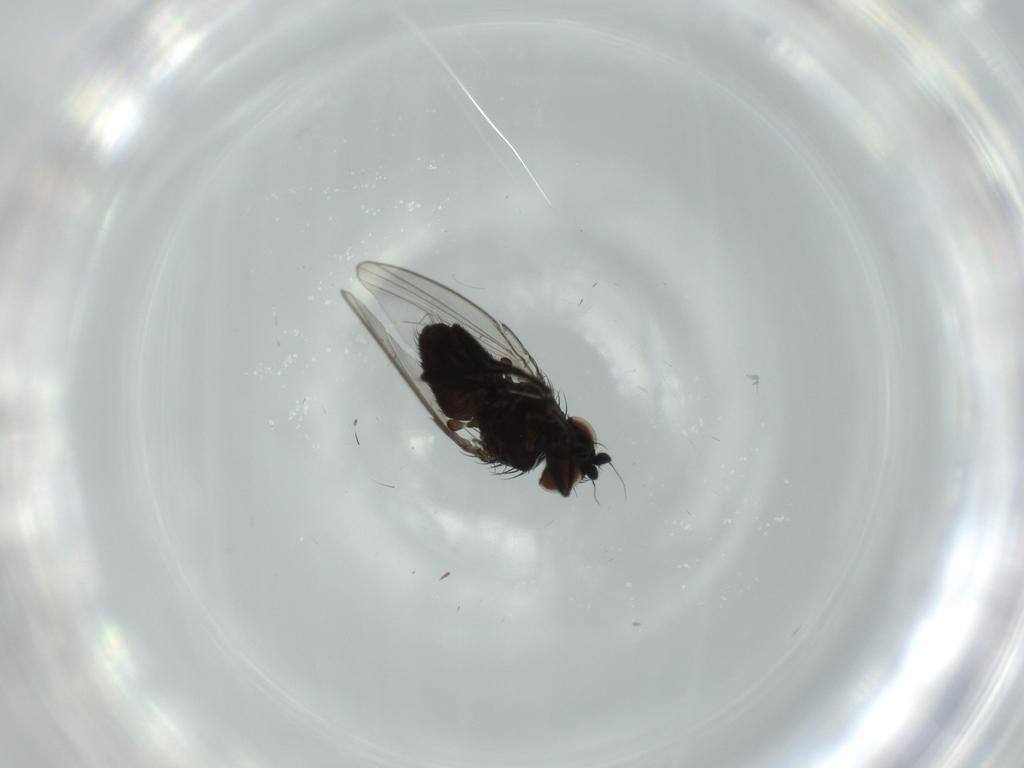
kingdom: Animalia
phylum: Arthropoda
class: Insecta
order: Diptera
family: Milichiidae
